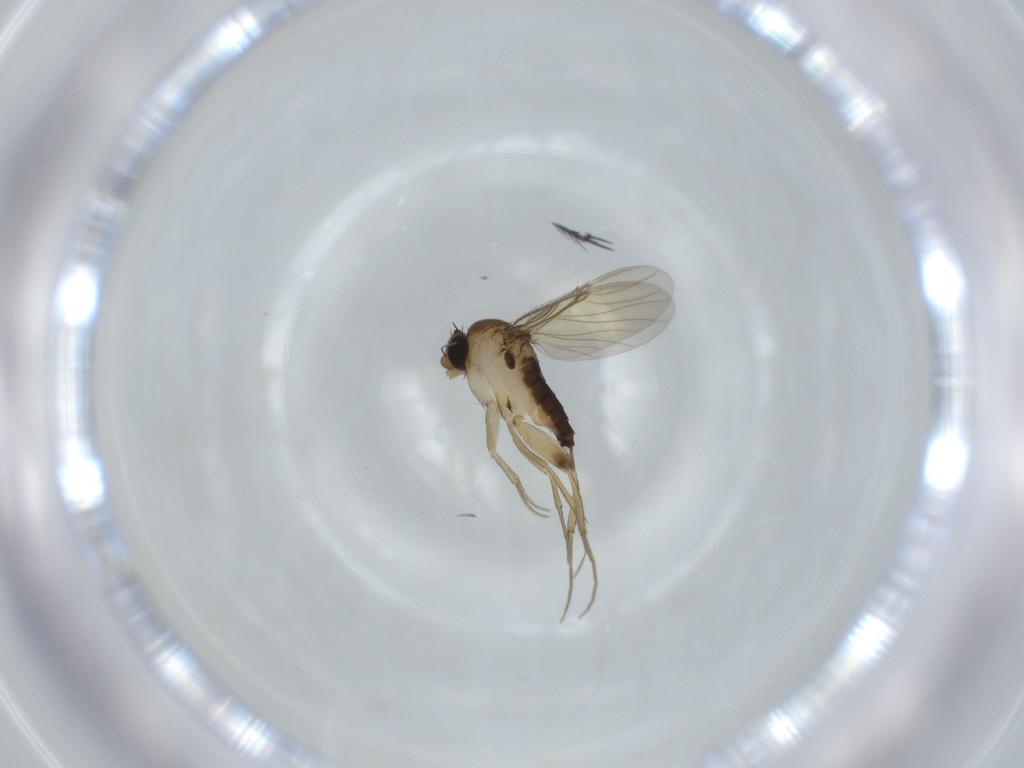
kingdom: Animalia
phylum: Arthropoda
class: Insecta
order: Diptera
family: Phoridae
